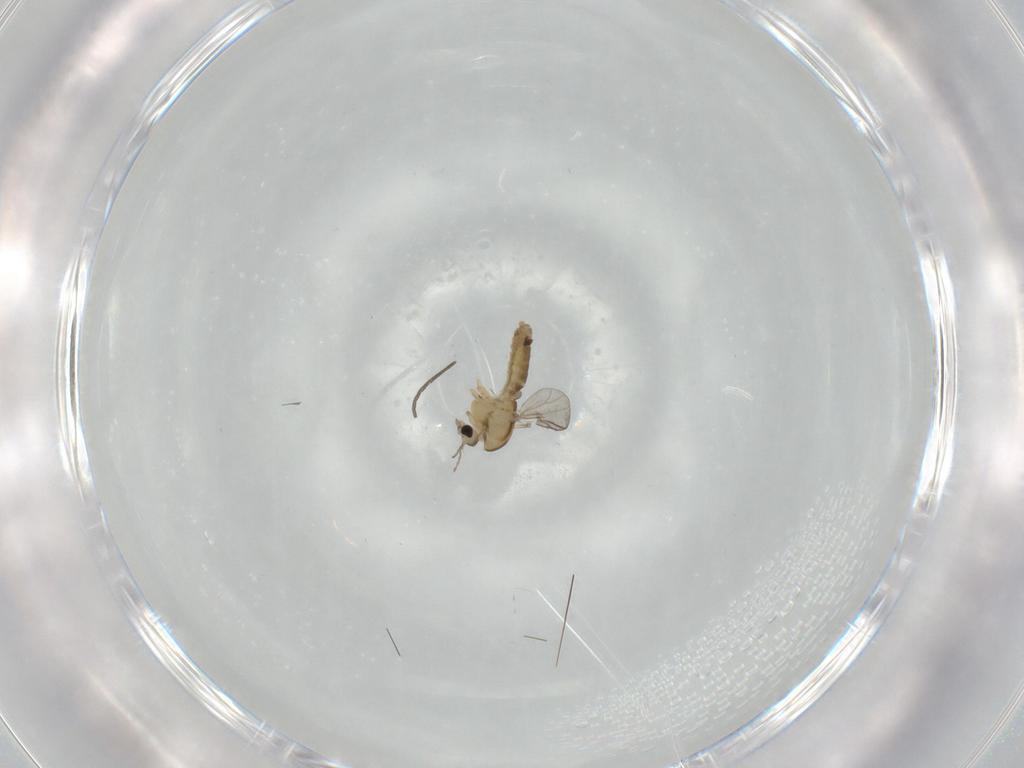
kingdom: Animalia
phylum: Arthropoda
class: Insecta
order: Diptera
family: Chironomidae
